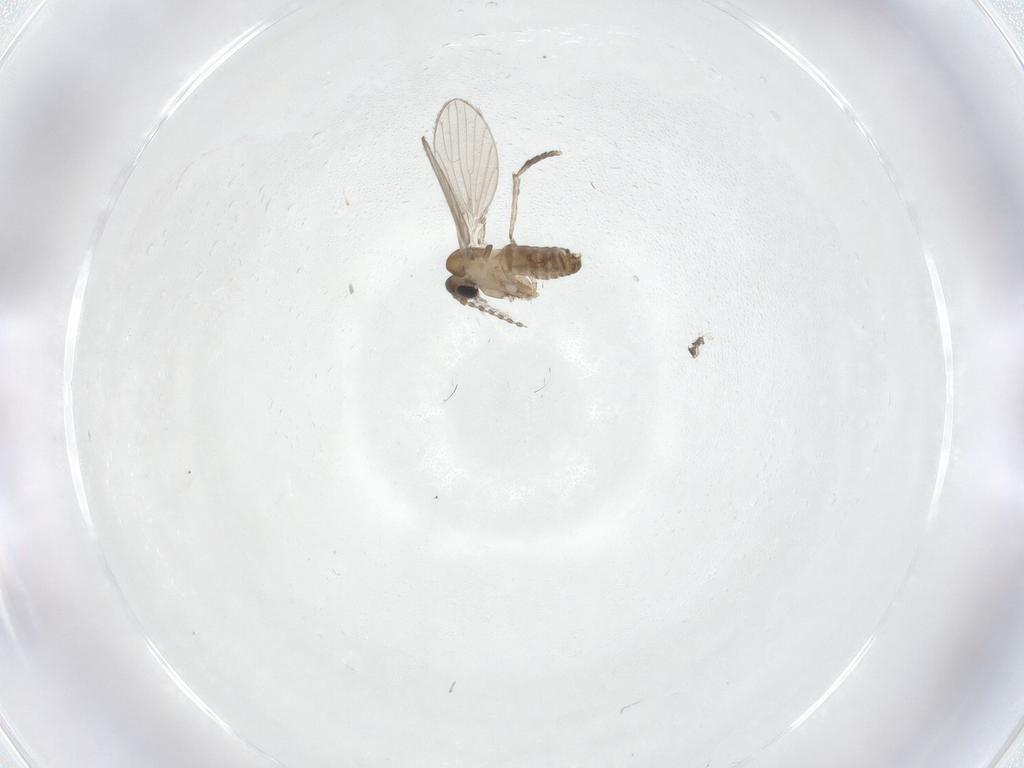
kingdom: Animalia
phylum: Arthropoda
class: Insecta
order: Diptera
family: Psychodidae
